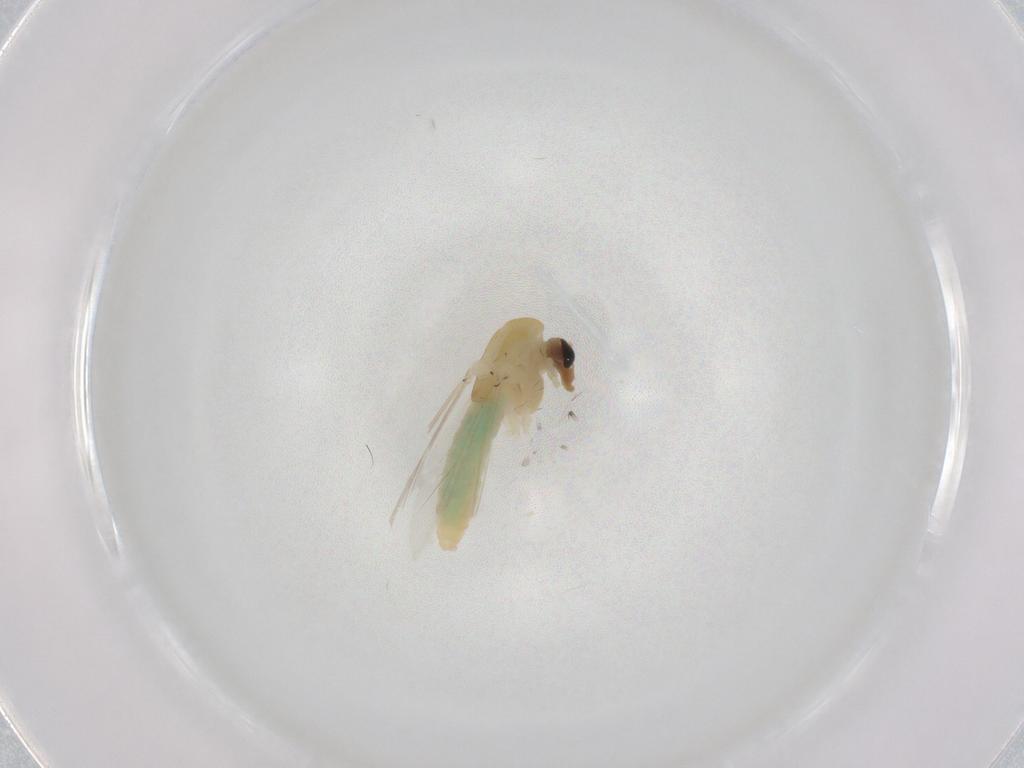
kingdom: Animalia
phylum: Arthropoda
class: Insecta
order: Diptera
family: Chironomidae
